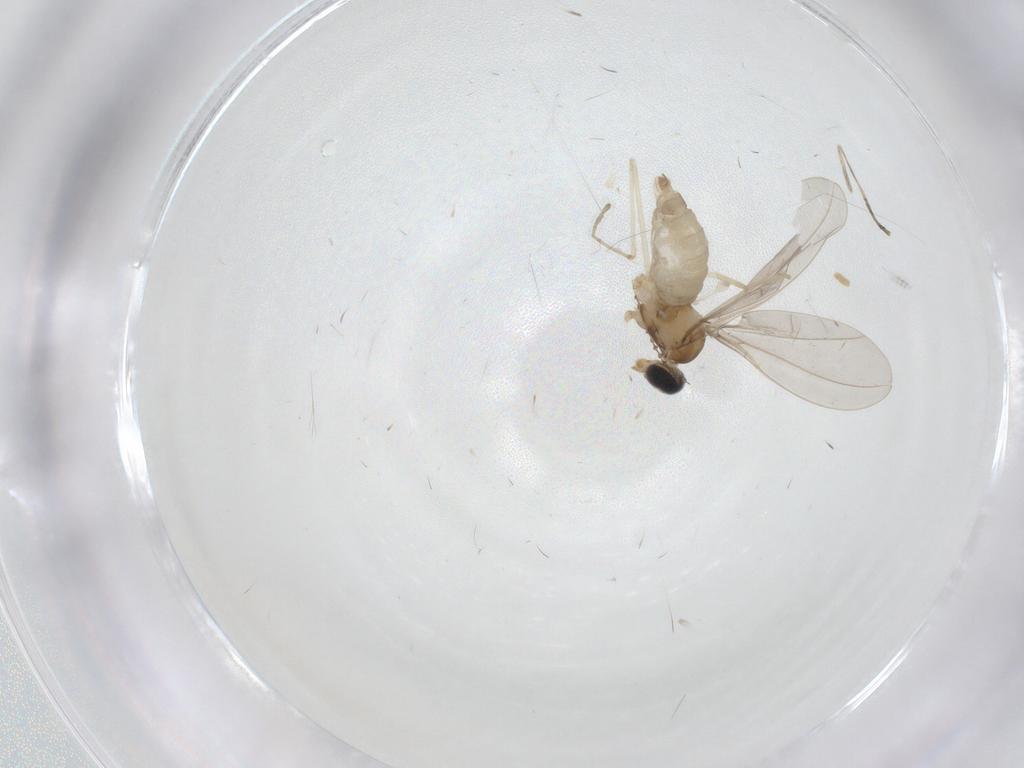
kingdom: Animalia
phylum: Arthropoda
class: Insecta
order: Diptera
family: Cecidomyiidae
